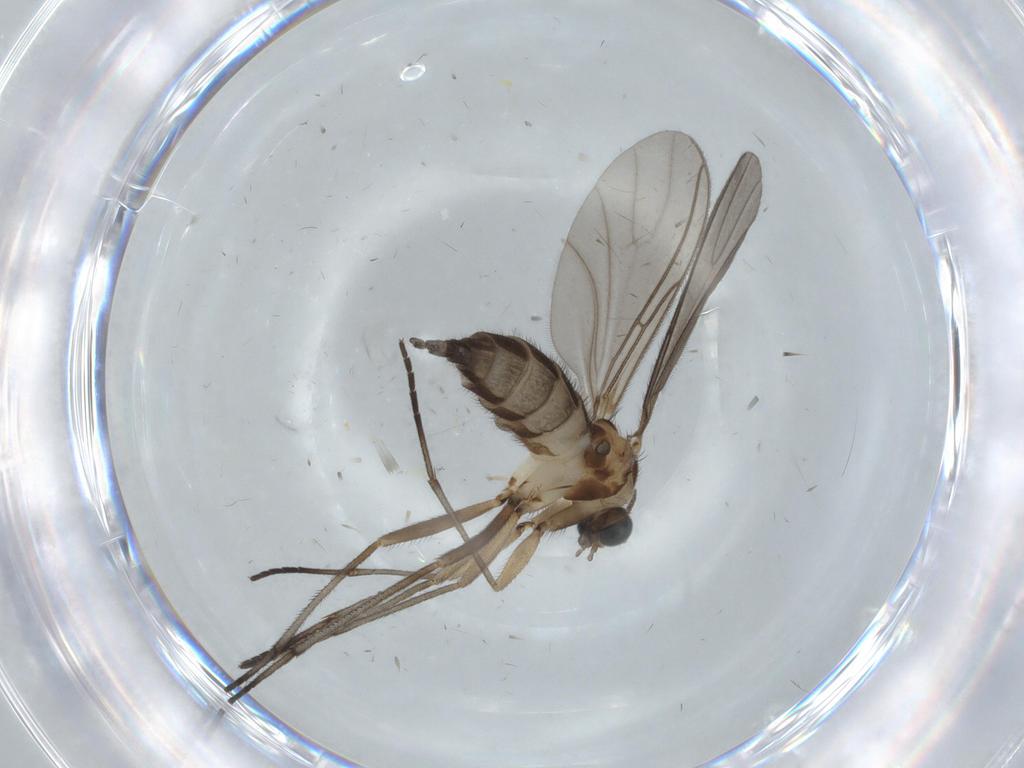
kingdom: Animalia
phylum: Arthropoda
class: Insecta
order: Diptera
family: Sciaridae
